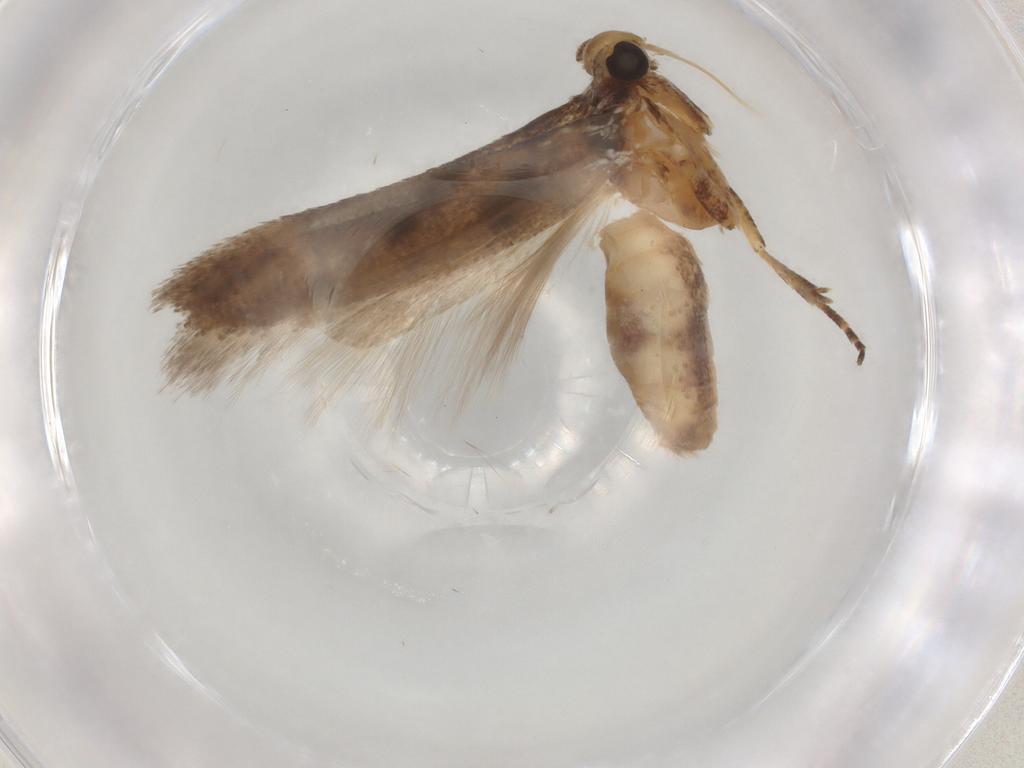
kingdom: Animalia
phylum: Arthropoda
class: Insecta
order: Lepidoptera
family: Gelechiidae
